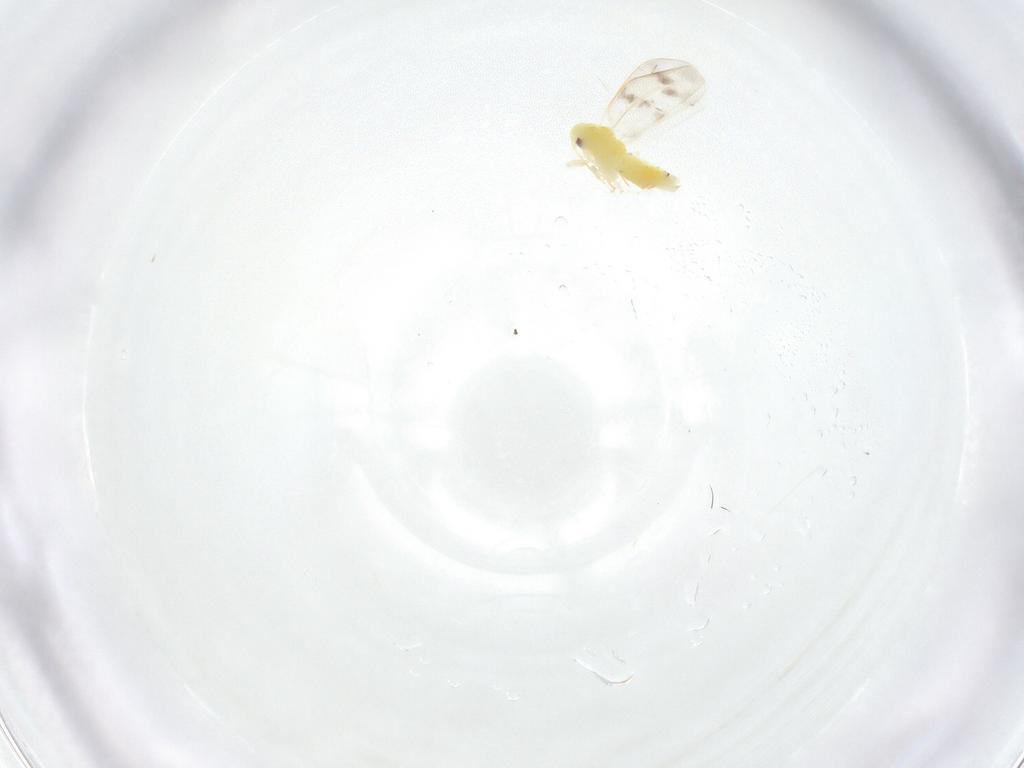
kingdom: Animalia
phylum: Arthropoda
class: Insecta
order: Hemiptera
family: Aleyrodidae
